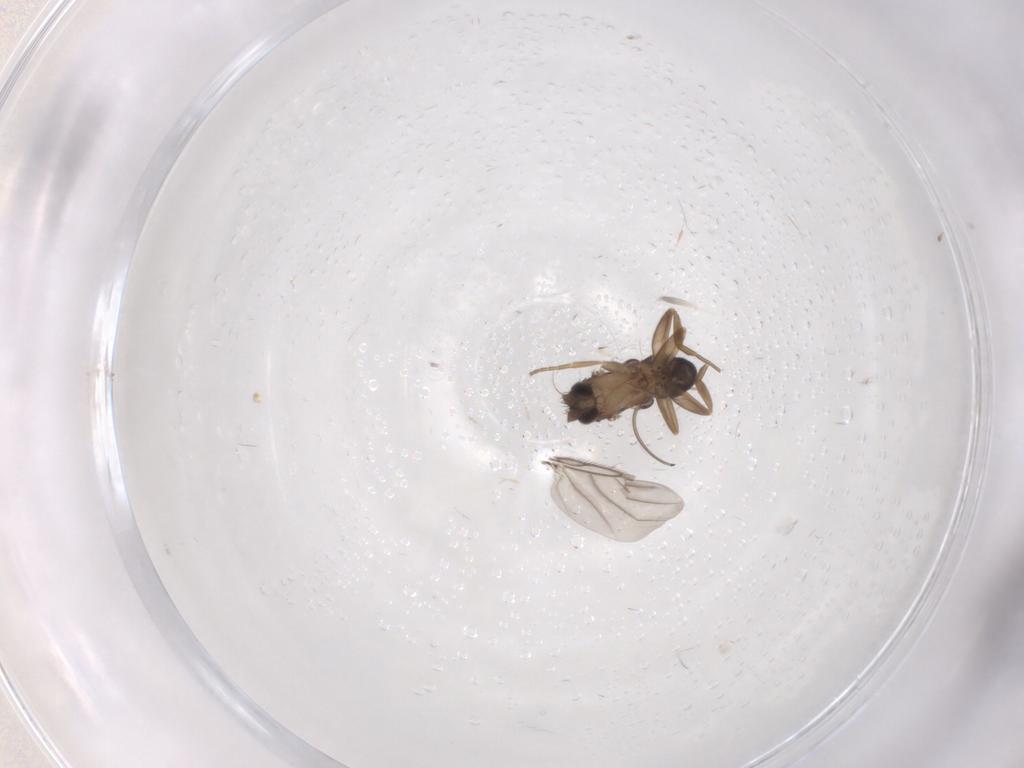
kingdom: Animalia
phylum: Arthropoda
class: Insecta
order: Diptera
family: Cecidomyiidae
